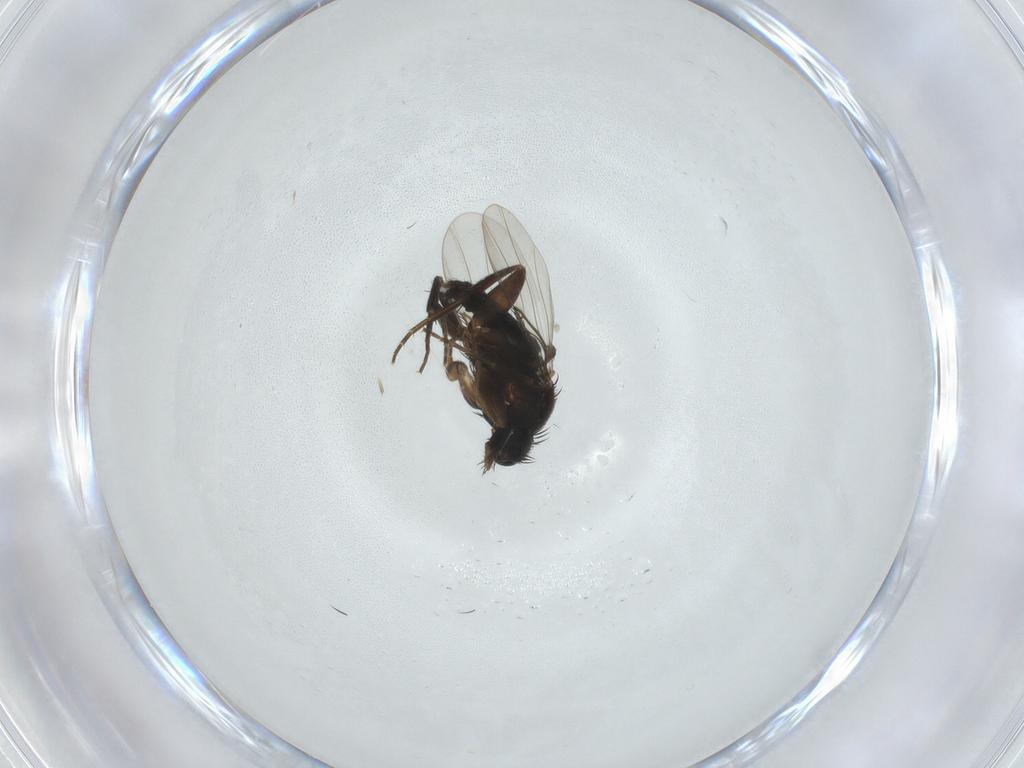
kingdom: Animalia
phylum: Arthropoda
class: Insecta
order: Diptera
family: Phoridae
